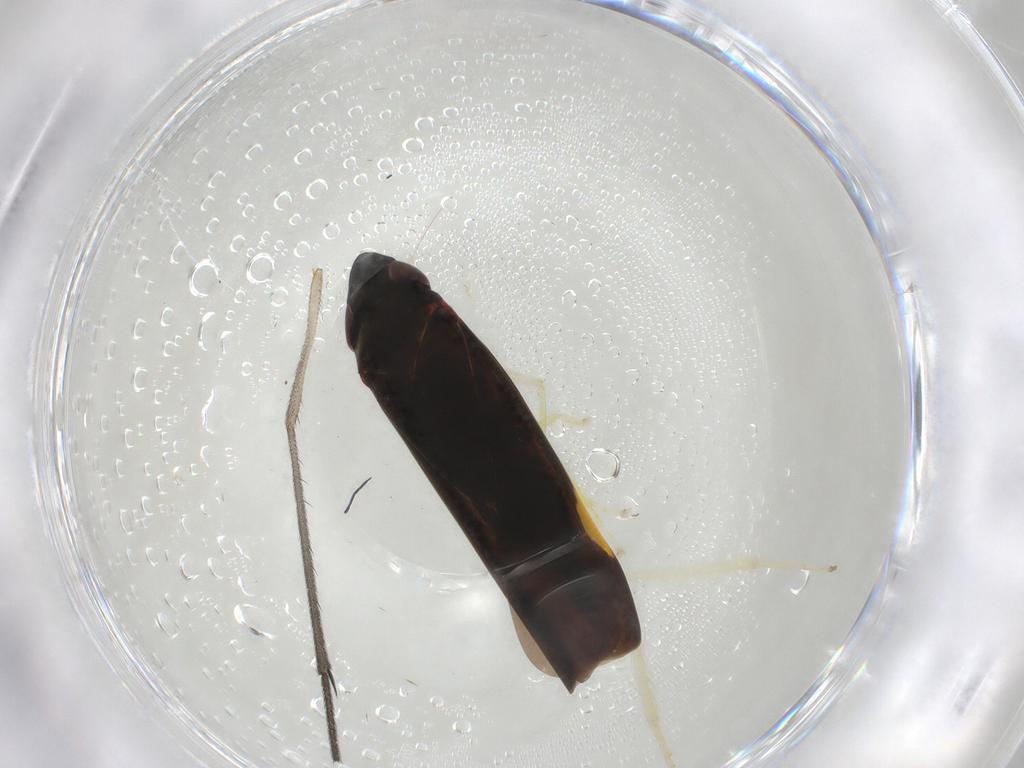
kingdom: Animalia
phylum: Arthropoda
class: Insecta
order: Hemiptera
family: Cicadellidae
